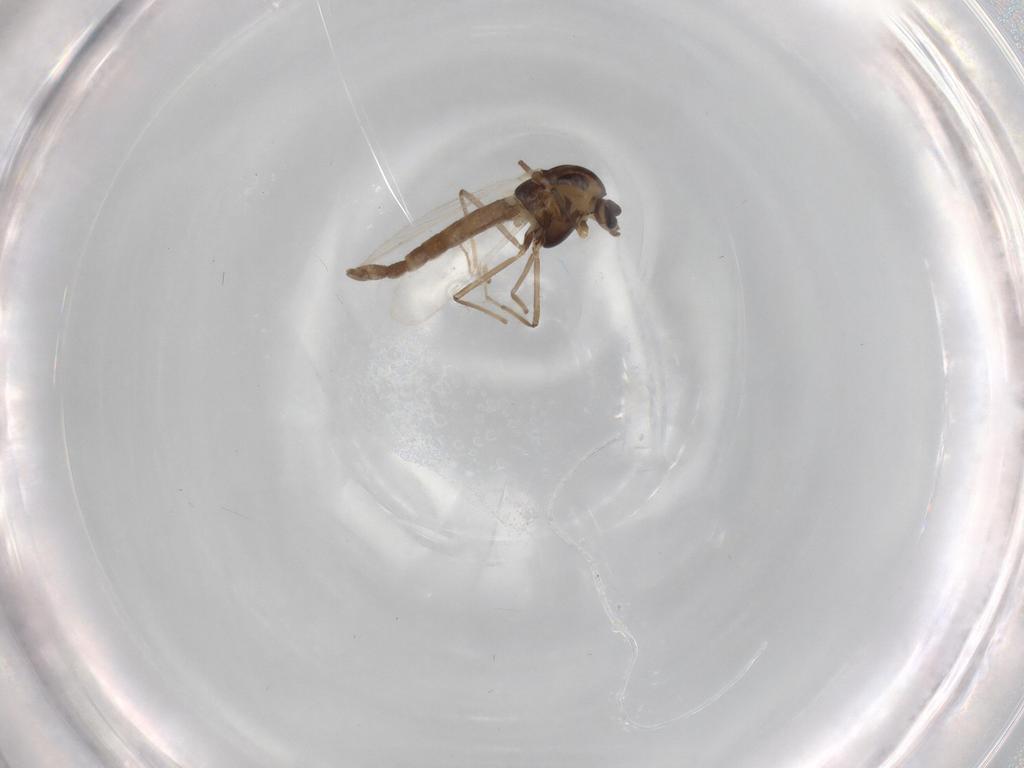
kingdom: Animalia
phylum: Arthropoda
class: Insecta
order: Diptera
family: Chironomidae
